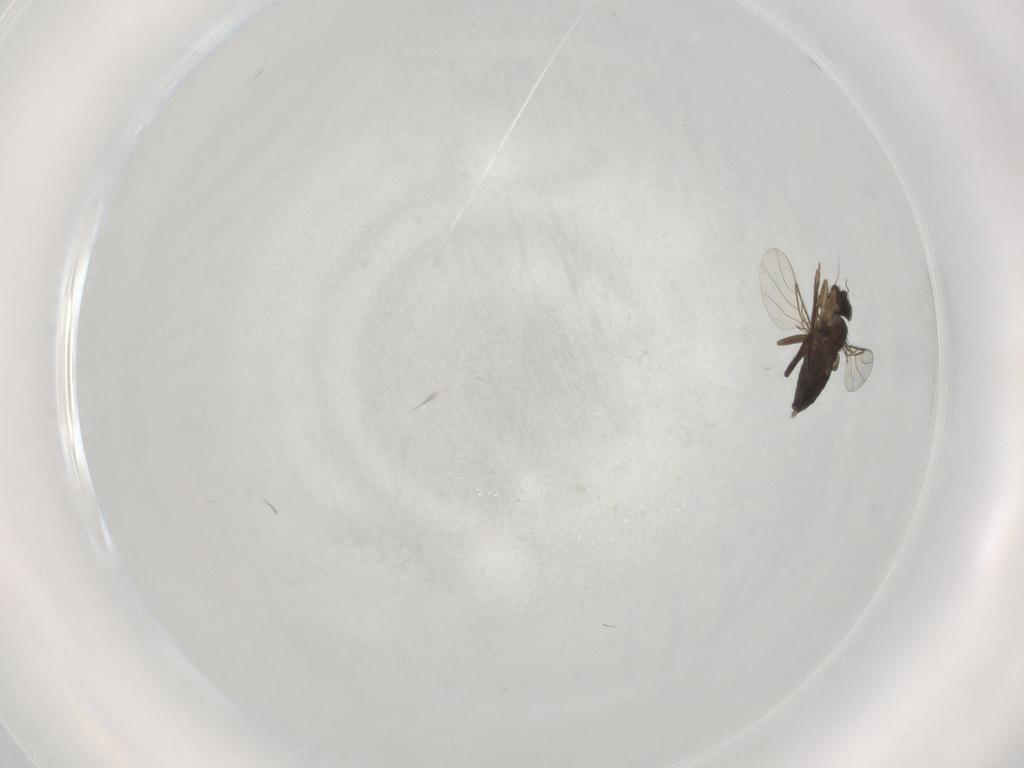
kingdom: Animalia
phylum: Arthropoda
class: Insecta
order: Diptera
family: Phoridae
